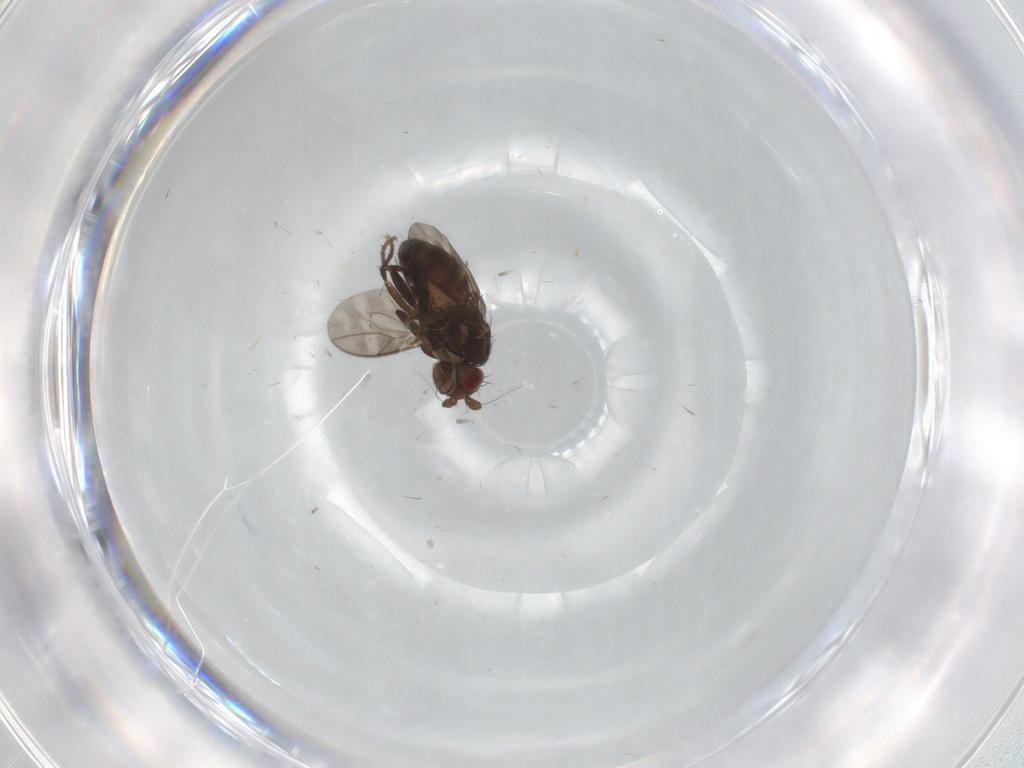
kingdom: Animalia
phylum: Arthropoda
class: Insecta
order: Diptera
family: Sphaeroceridae
